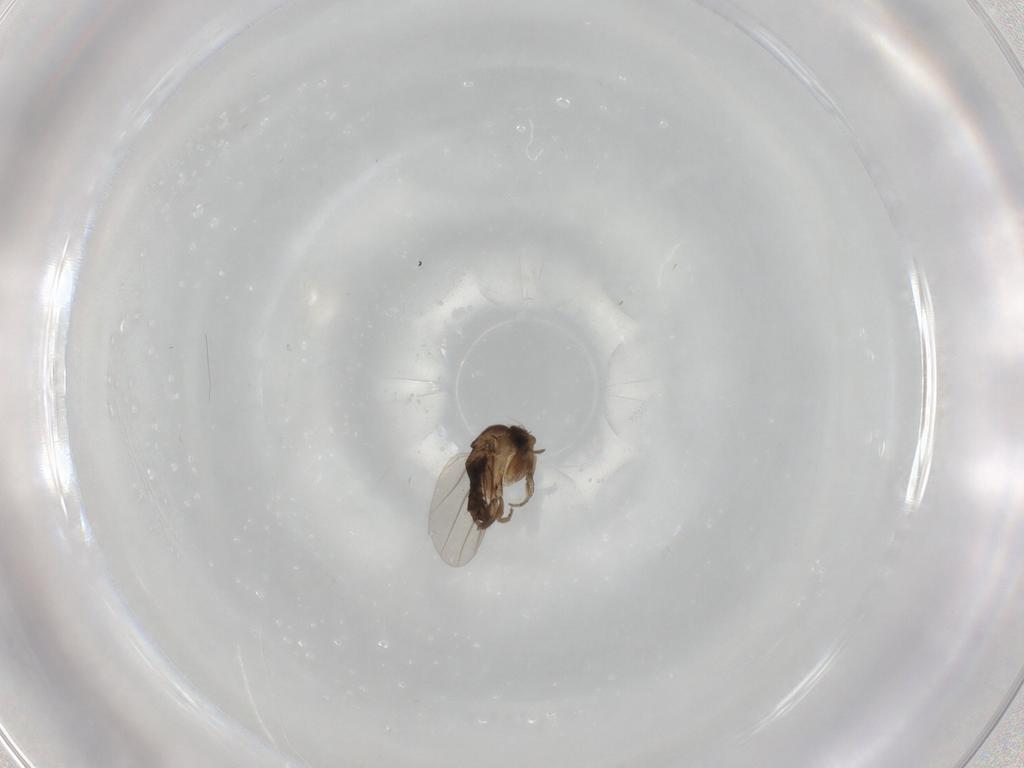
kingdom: Animalia
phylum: Arthropoda
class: Insecta
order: Diptera
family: Phoridae
